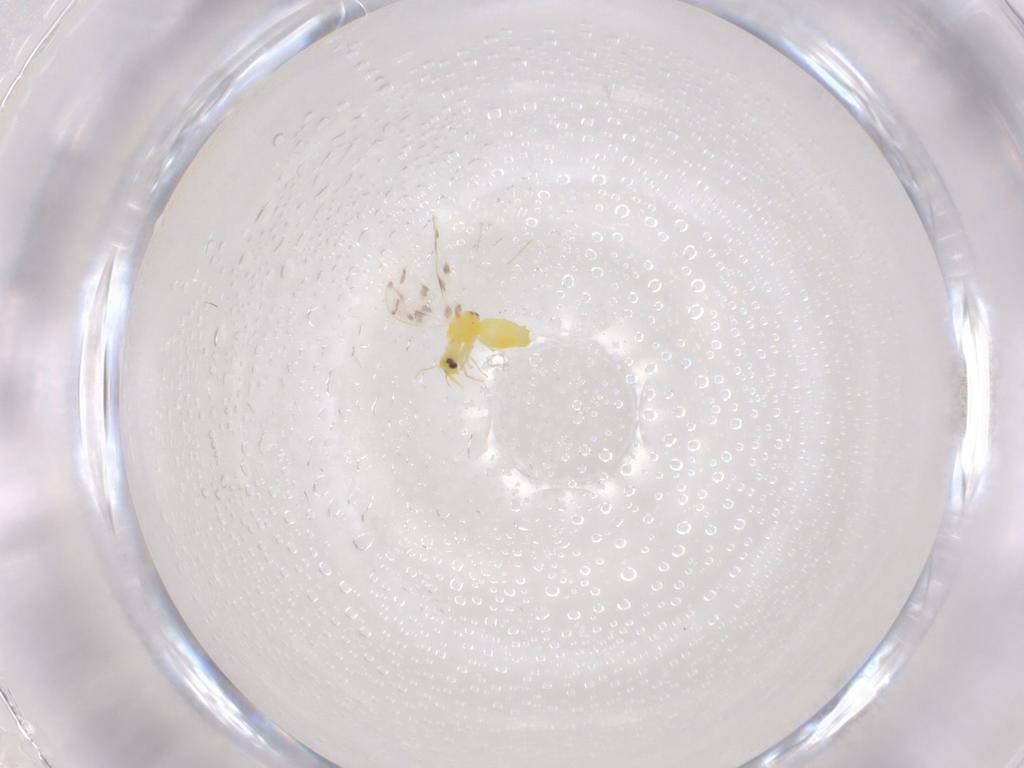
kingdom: Animalia
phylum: Arthropoda
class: Insecta
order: Hemiptera
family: Aleyrodidae
